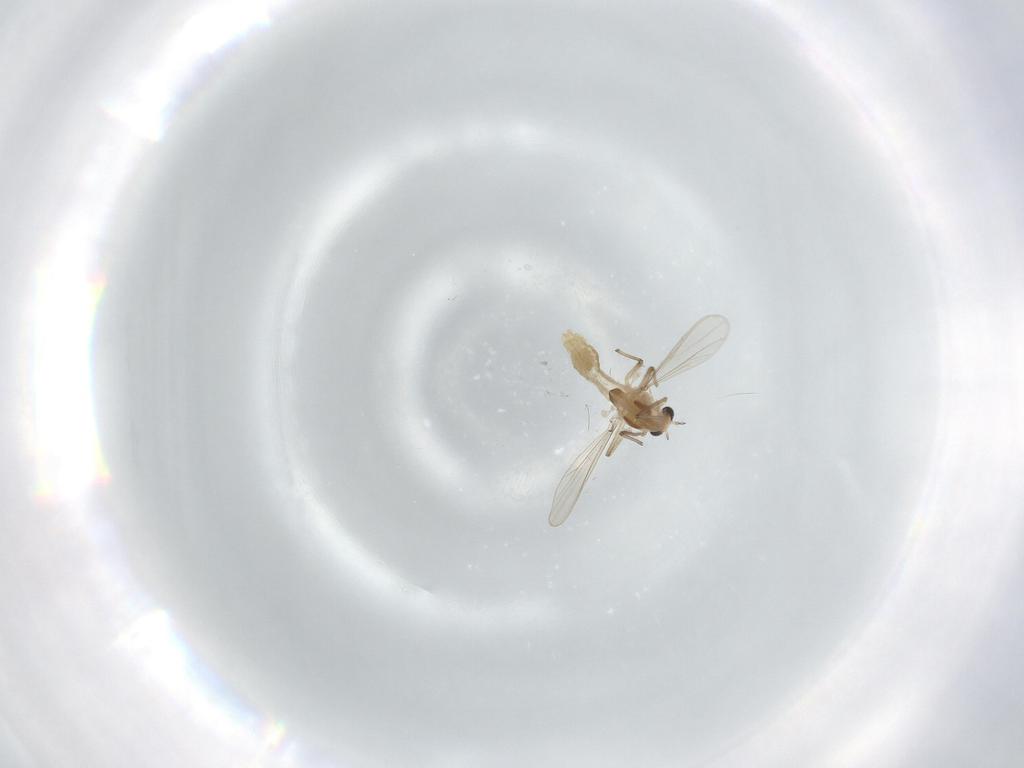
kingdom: Animalia
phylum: Arthropoda
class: Insecta
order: Diptera
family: Chironomidae
